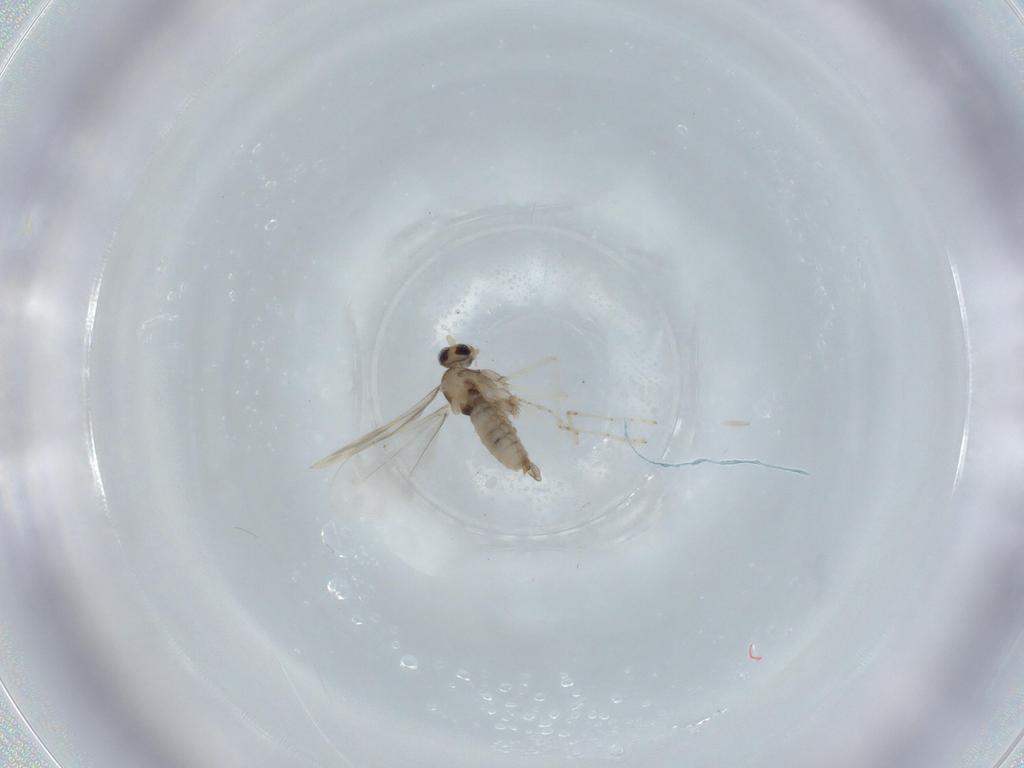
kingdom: Animalia
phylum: Arthropoda
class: Insecta
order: Diptera
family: Cecidomyiidae
